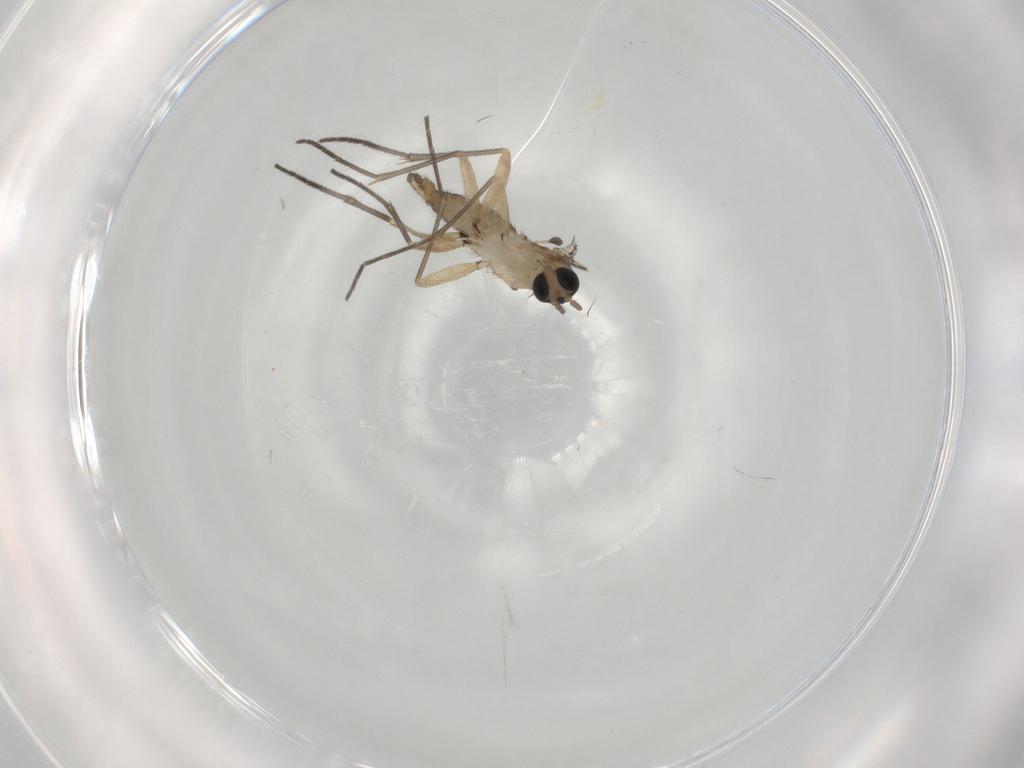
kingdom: Animalia
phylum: Arthropoda
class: Insecta
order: Diptera
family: Sciaridae
